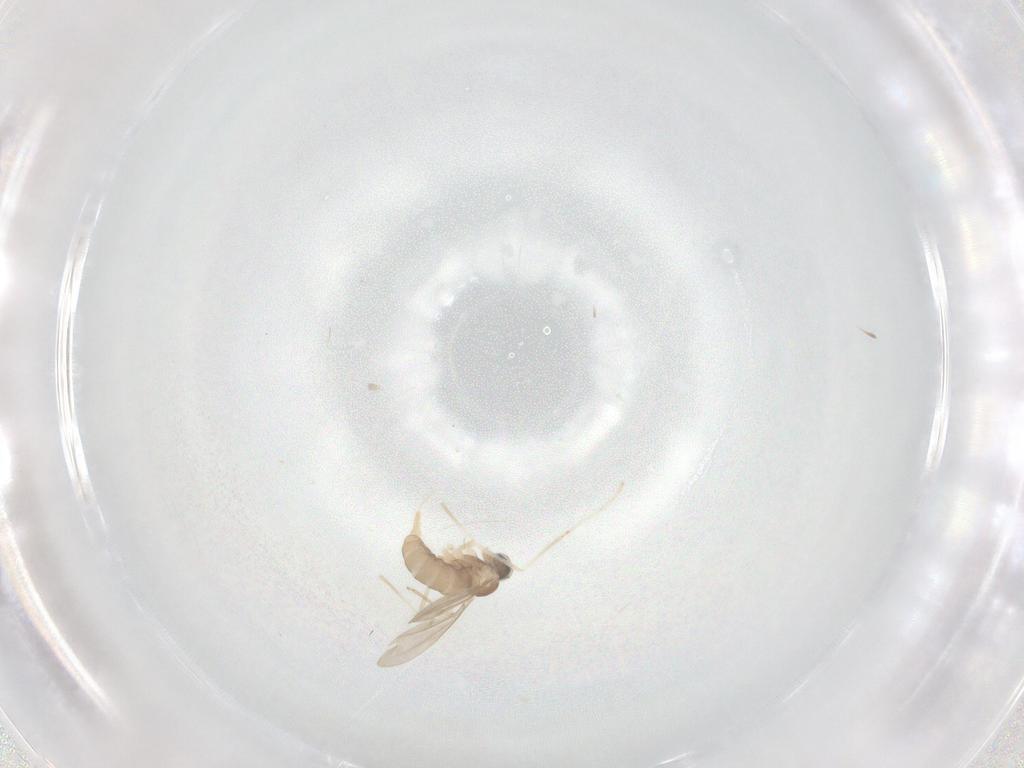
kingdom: Animalia
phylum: Arthropoda
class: Insecta
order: Diptera
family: Cecidomyiidae
